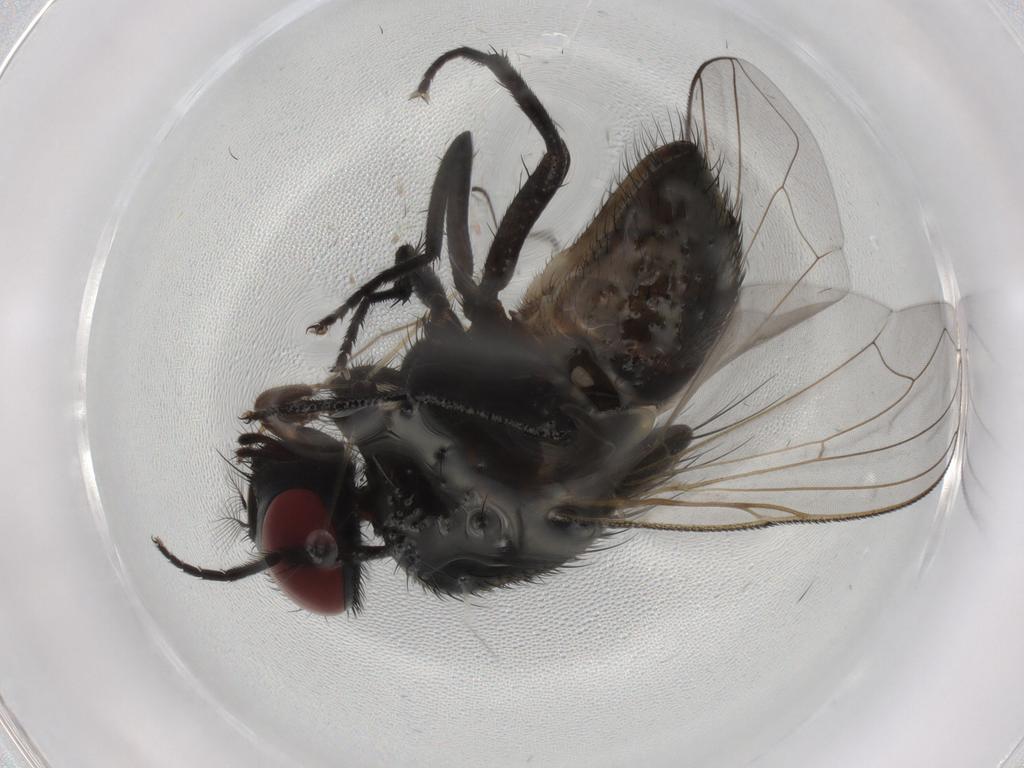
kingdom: Animalia
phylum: Arthropoda
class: Insecta
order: Diptera
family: Muscidae
